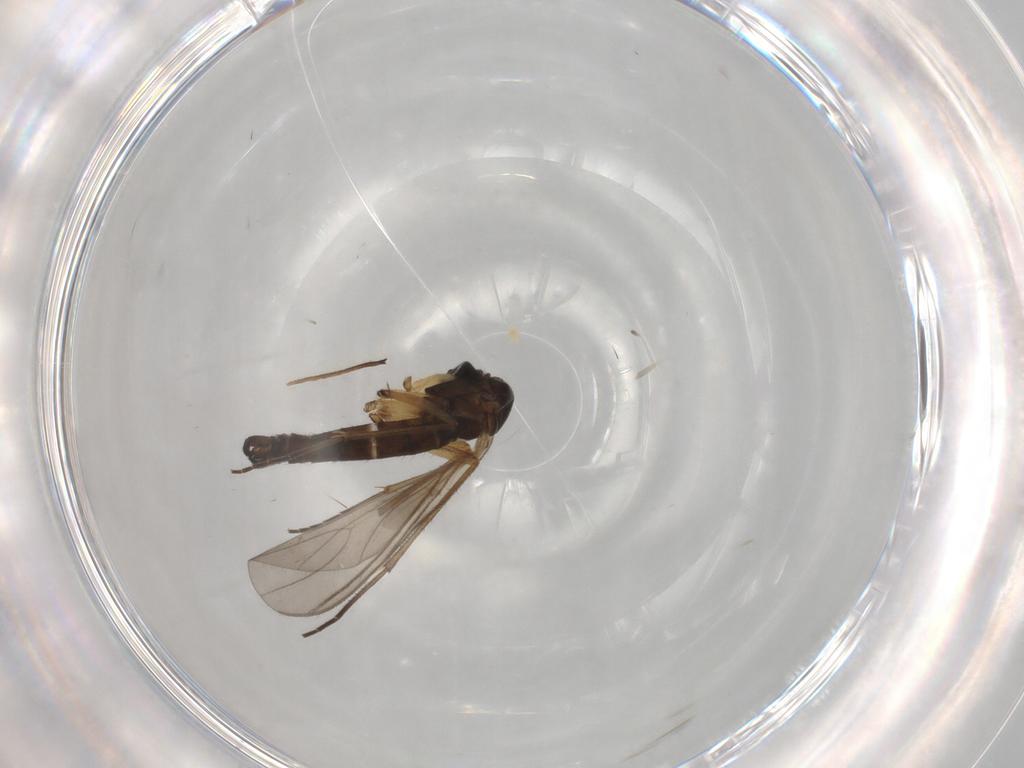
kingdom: Animalia
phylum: Arthropoda
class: Insecta
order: Diptera
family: Sciaridae
